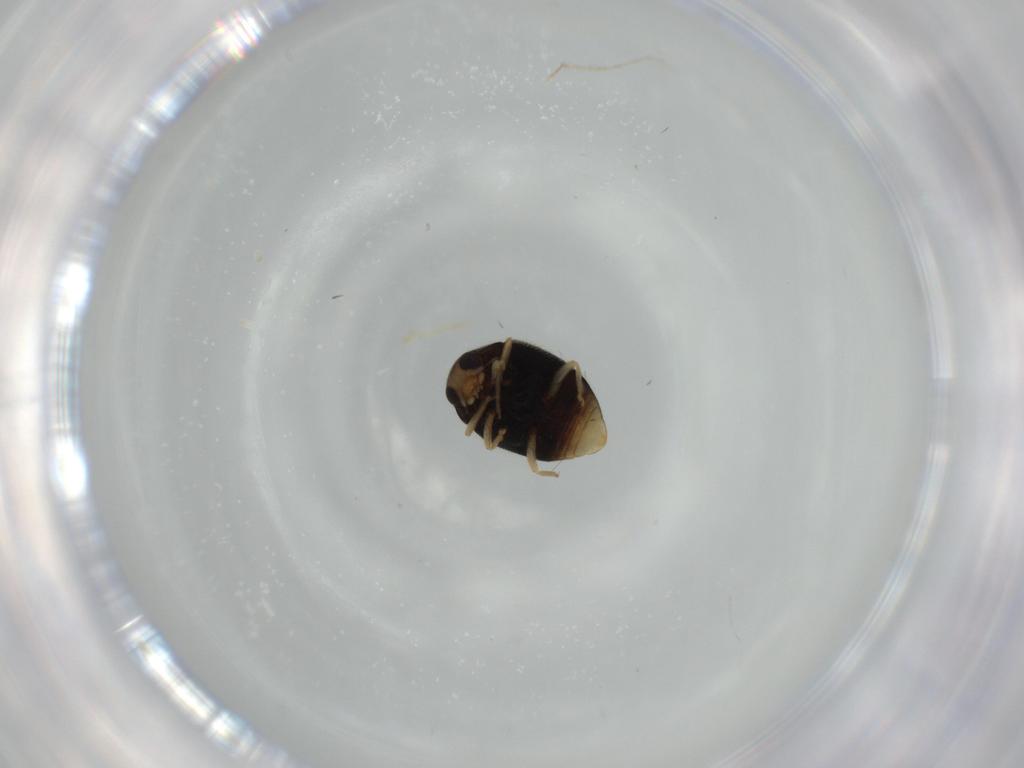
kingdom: Animalia
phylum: Arthropoda
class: Insecta
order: Coleoptera
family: Coccinellidae
